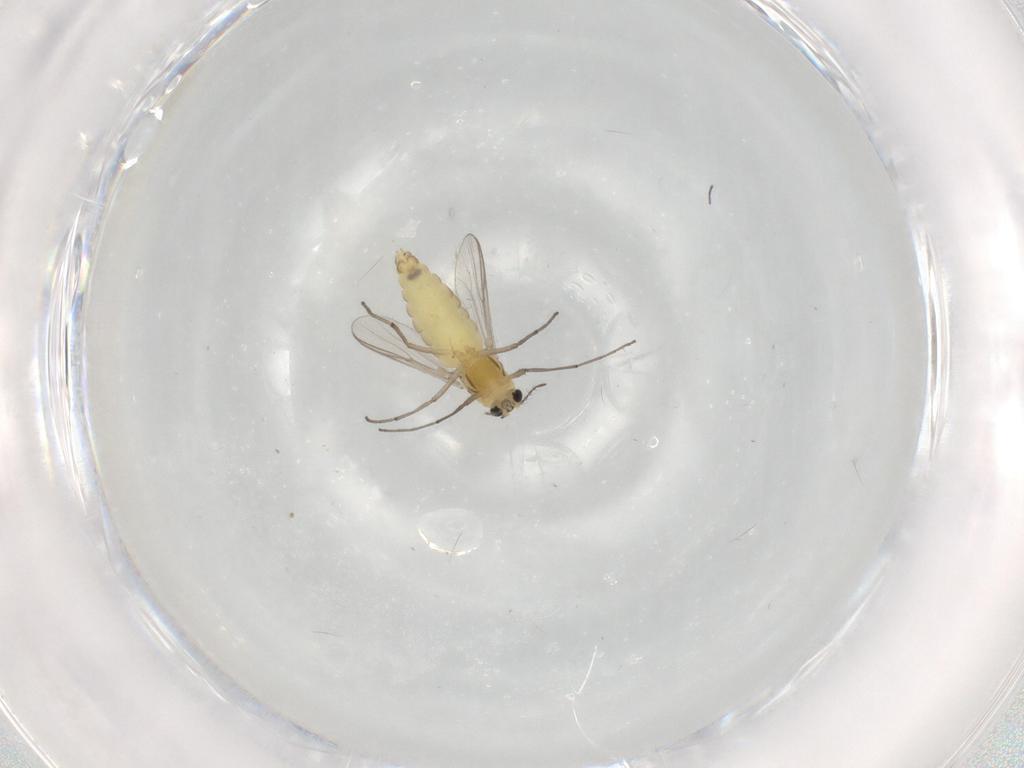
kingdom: Animalia
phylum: Arthropoda
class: Insecta
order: Diptera
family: Chironomidae
